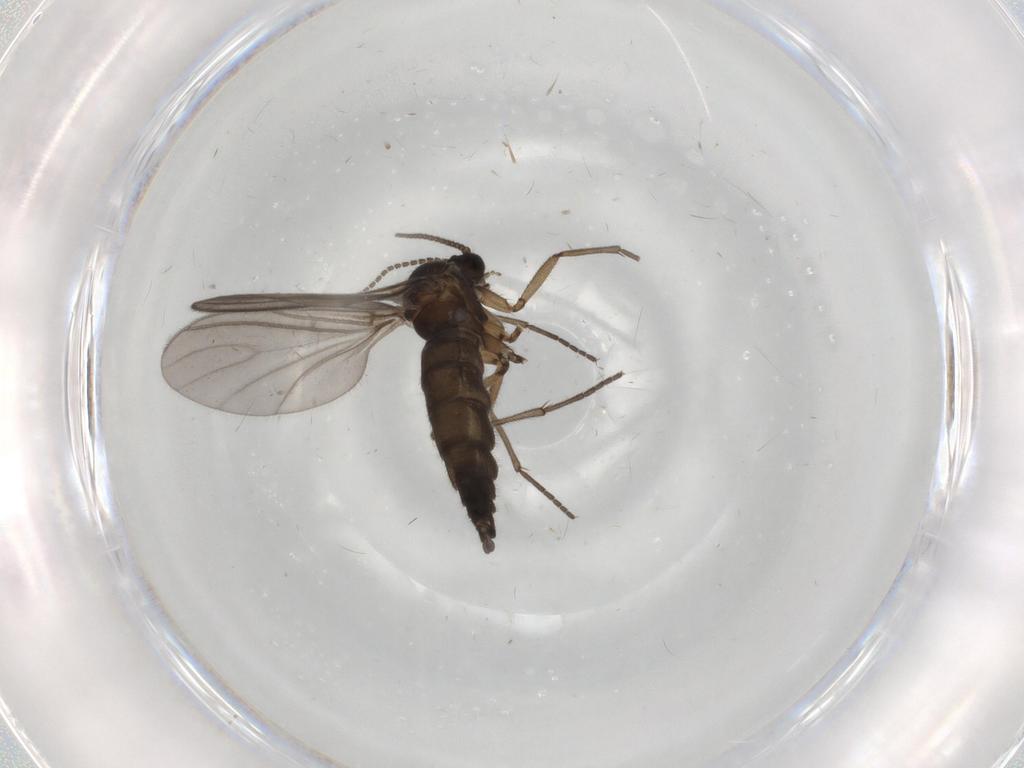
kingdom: Animalia
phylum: Arthropoda
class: Insecta
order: Diptera
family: Sciaridae
